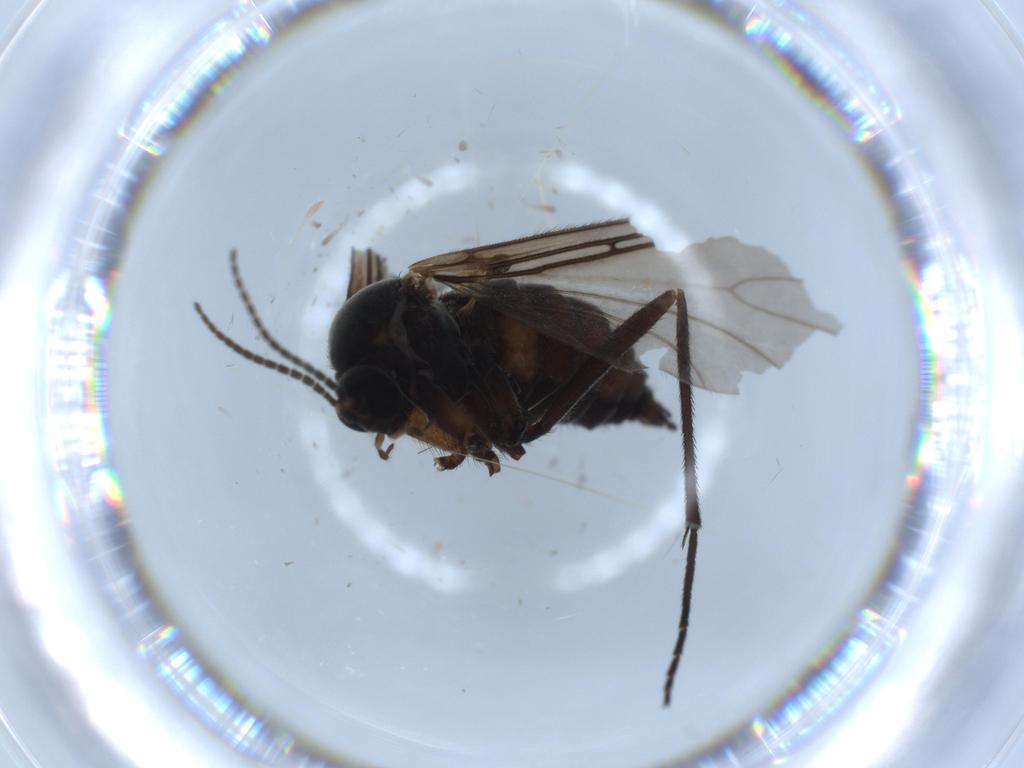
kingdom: Animalia
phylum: Arthropoda
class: Insecta
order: Diptera
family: Sciaridae
